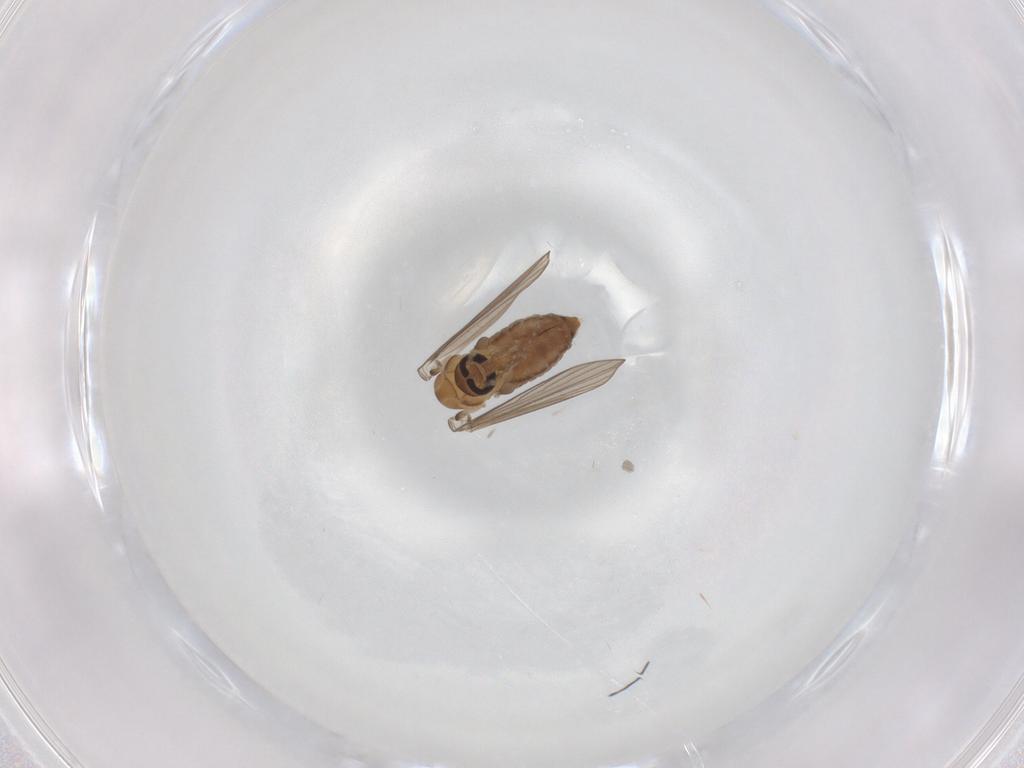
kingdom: Animalia
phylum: Arthropoda
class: Insecta
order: Diptera
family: Psychodidae
